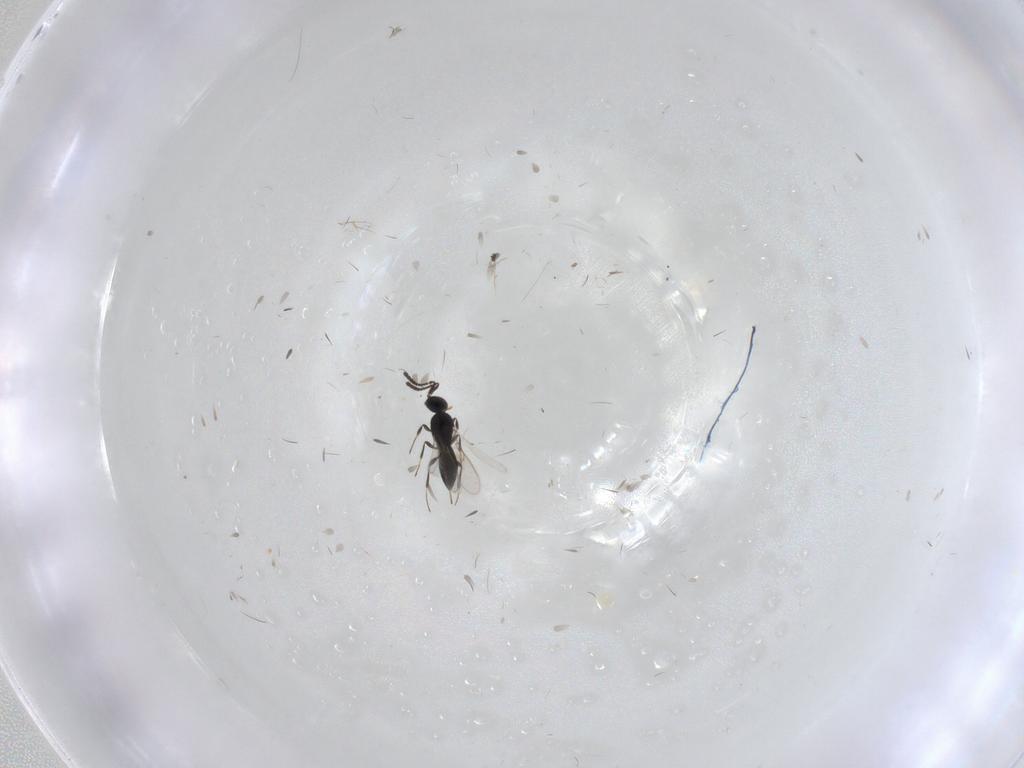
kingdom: Animalia
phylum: Arthropoda
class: Insecta
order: Hymenoptera
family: Scelionidae
